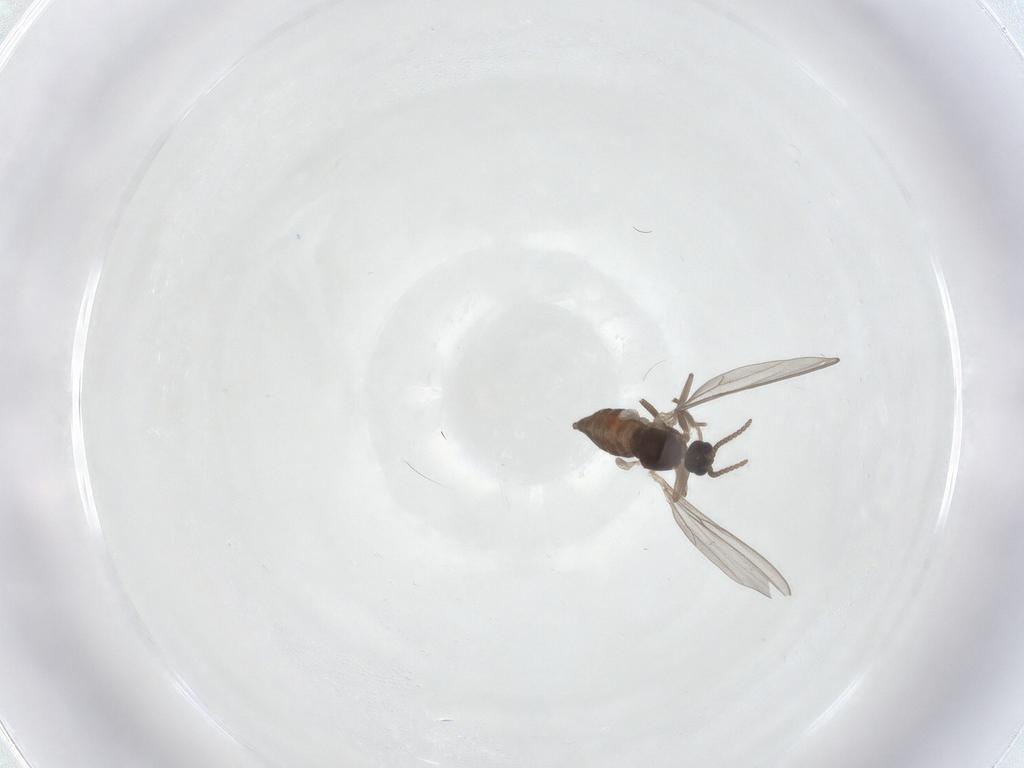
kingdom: Animalia
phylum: Arthropoda
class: Insecta
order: Diptera
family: Cecidomyiidae
